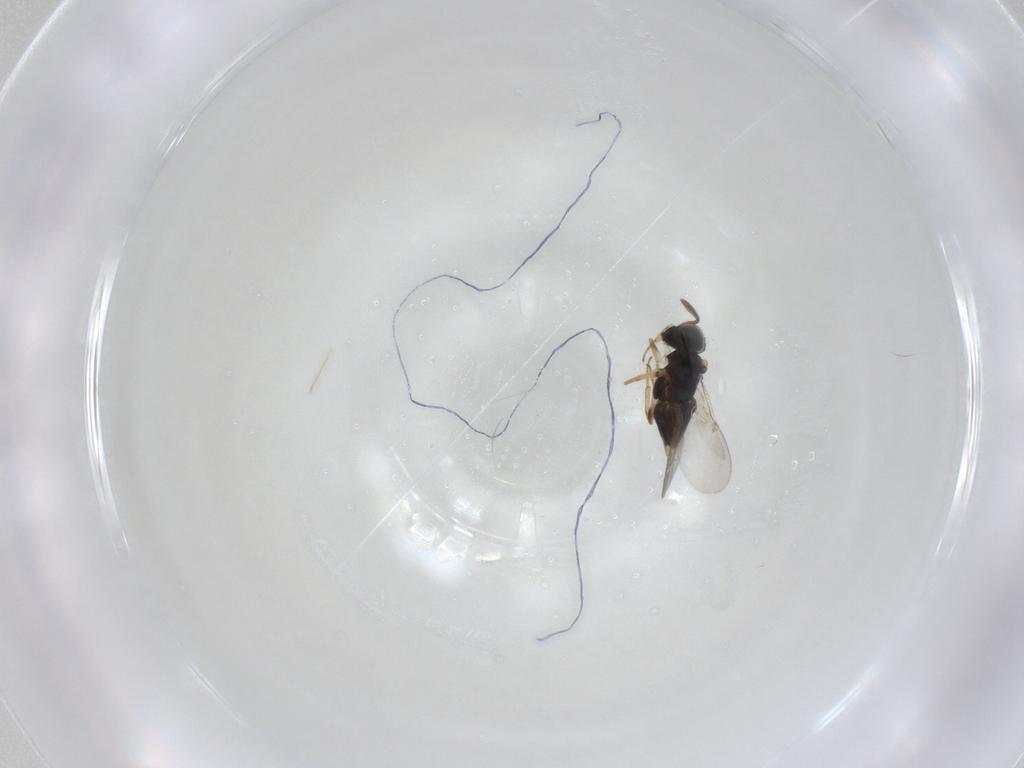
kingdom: Animalia
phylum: Arthropoda
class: Insecta
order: Hymenoptera
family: Encyrtidae
